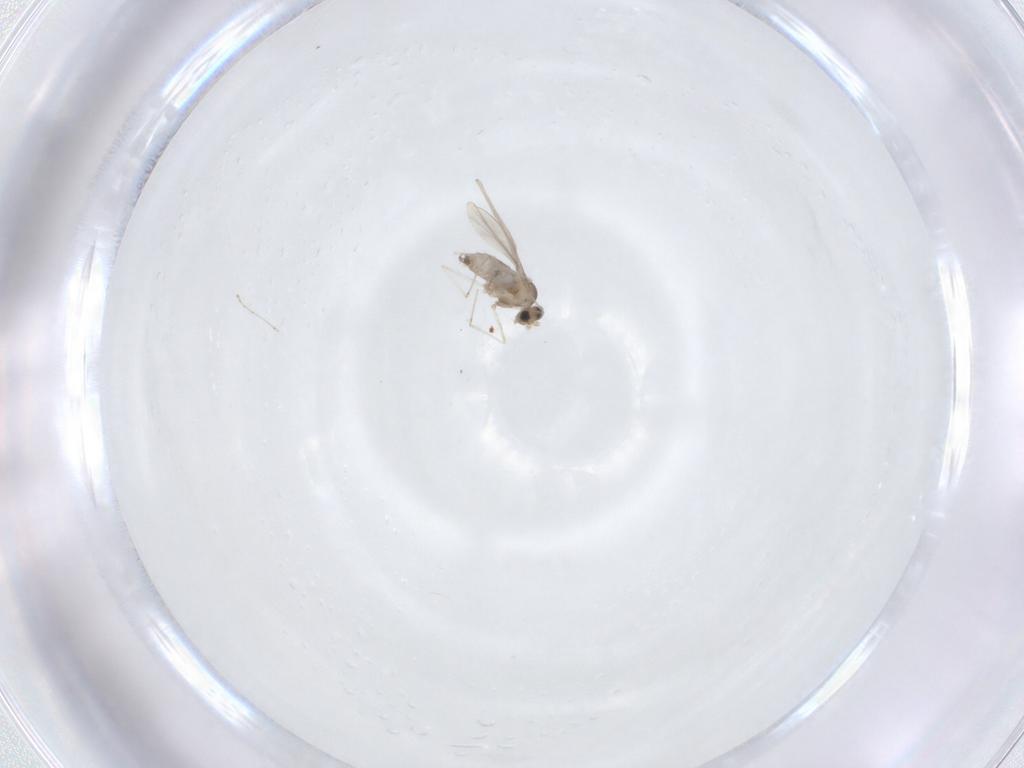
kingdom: Animalia
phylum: Arthropoda
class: Insecta
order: Diptera
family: Cecidomyiidae
